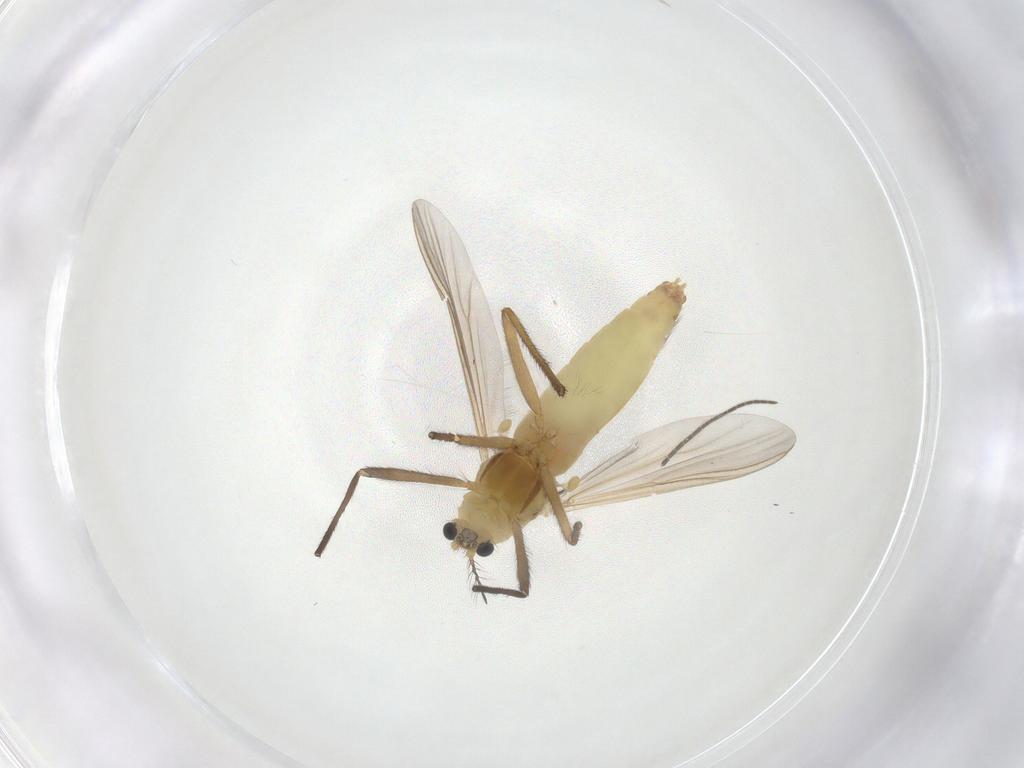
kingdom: Animalia
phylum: Arthropoda
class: Insecta
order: Diptera
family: Chironomidae
